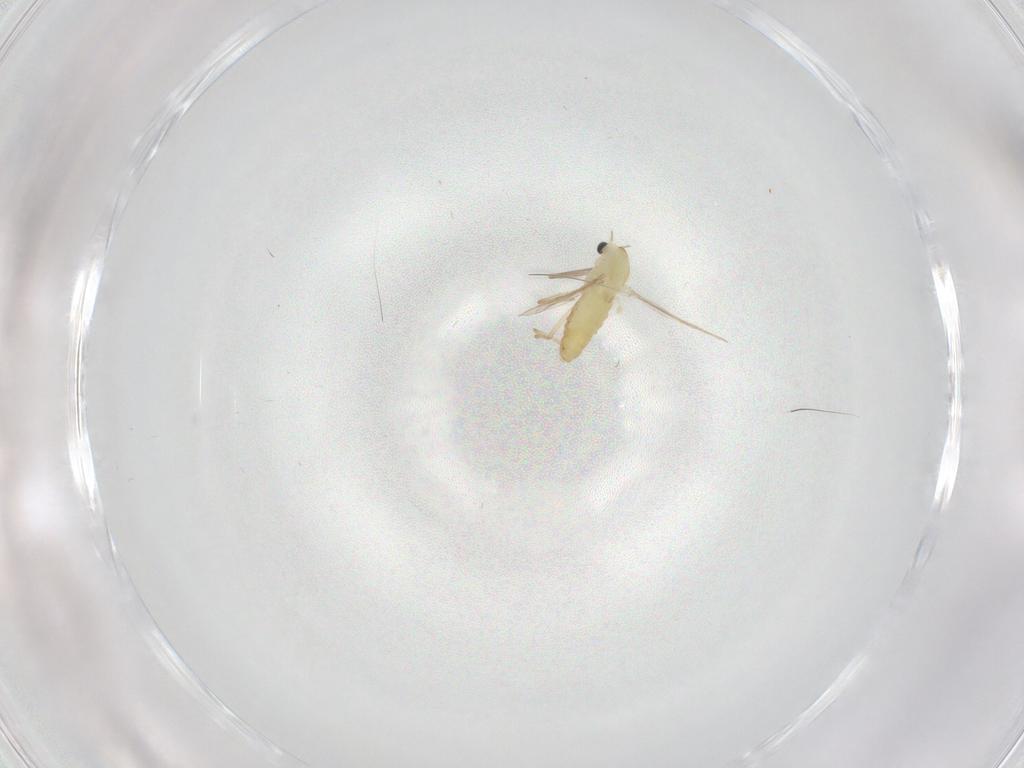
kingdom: Animalia
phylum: Arthropoda
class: Insecta
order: Diptera
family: Chironomidae
